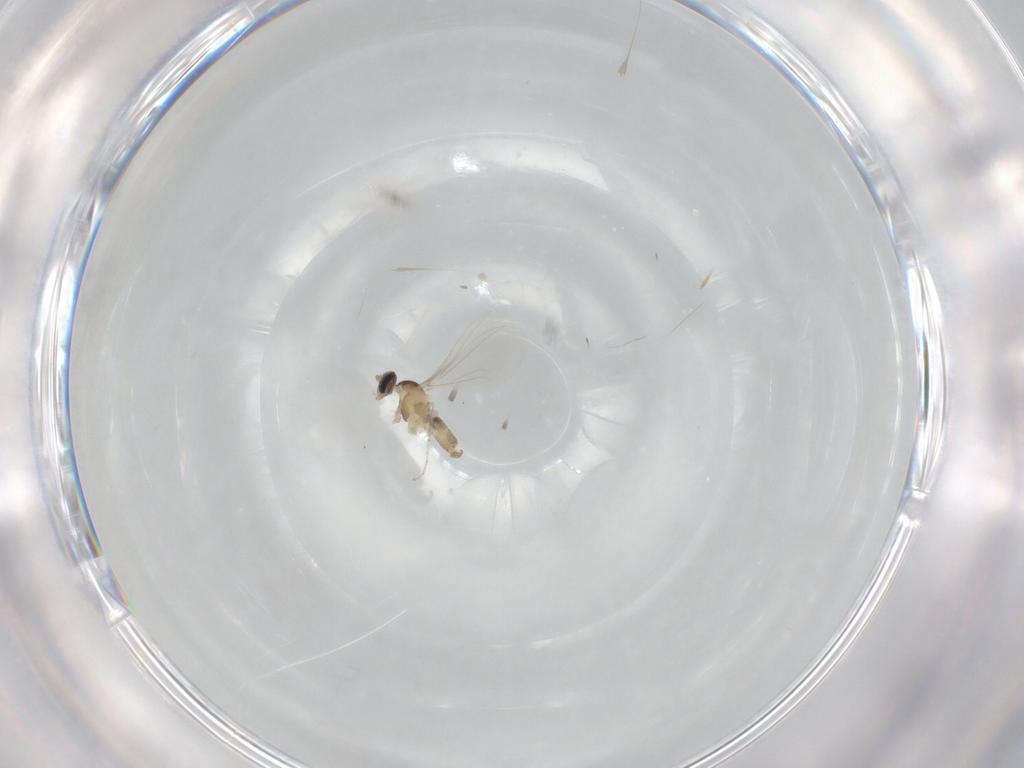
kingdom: Animalia
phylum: Arthropoda
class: Insecta
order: Diptera
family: Cecidomyiidae
